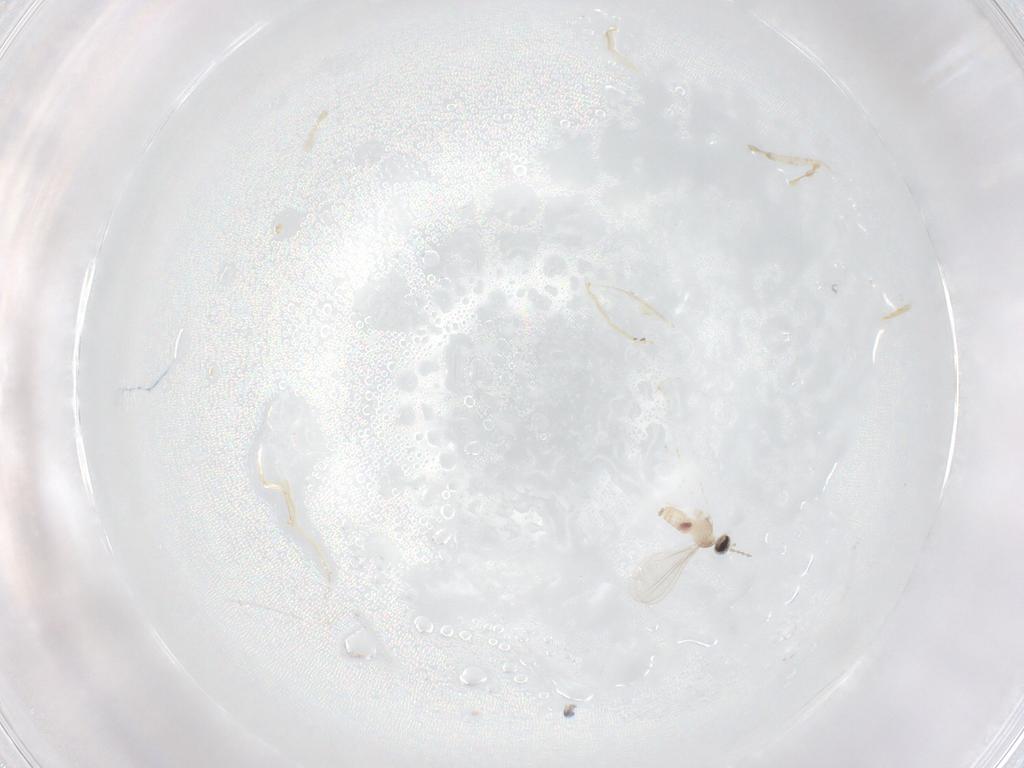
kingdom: Animalia
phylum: Arthropoda
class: Insecta
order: Diptera
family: Cecidomyiidae
